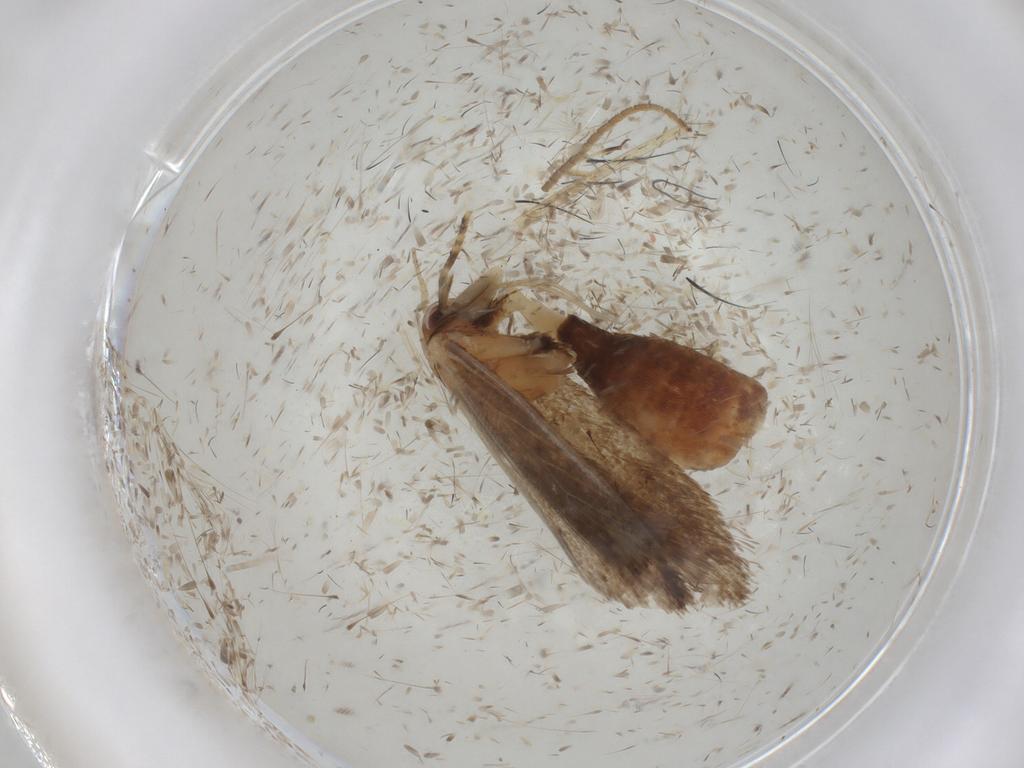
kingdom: Animalia
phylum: Arthropoda
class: Insecta
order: Lepidoptera
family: Oecophoridae
